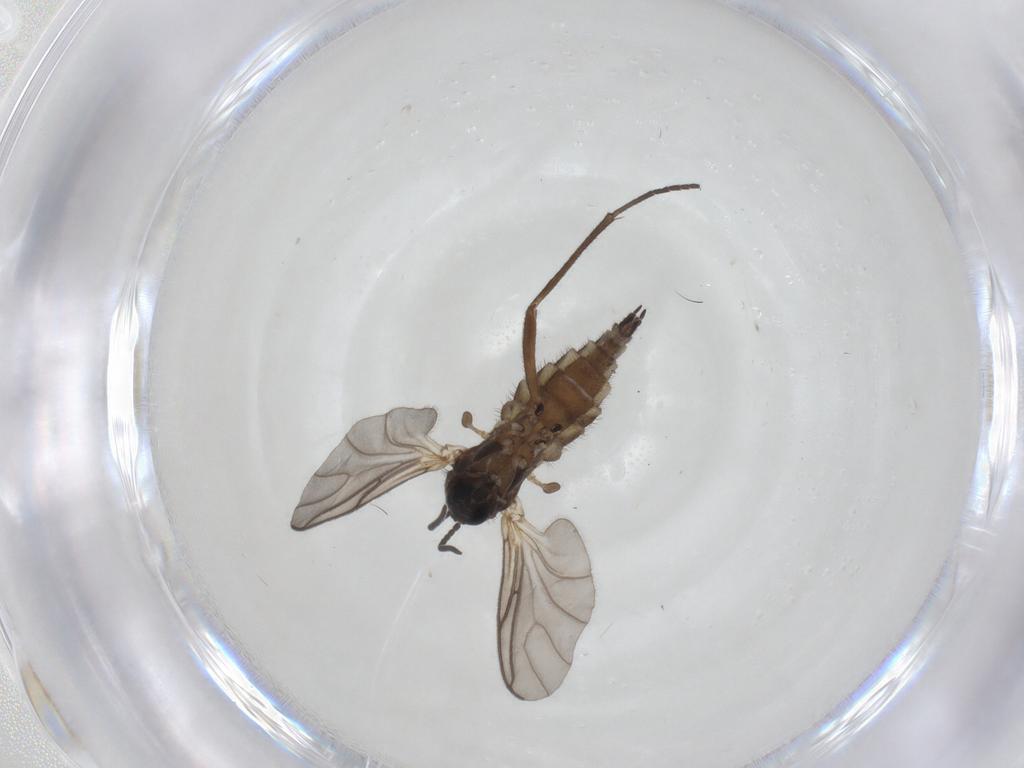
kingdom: Animalia
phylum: Arthropoda
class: Insecta
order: Diptera
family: Sciaridae
